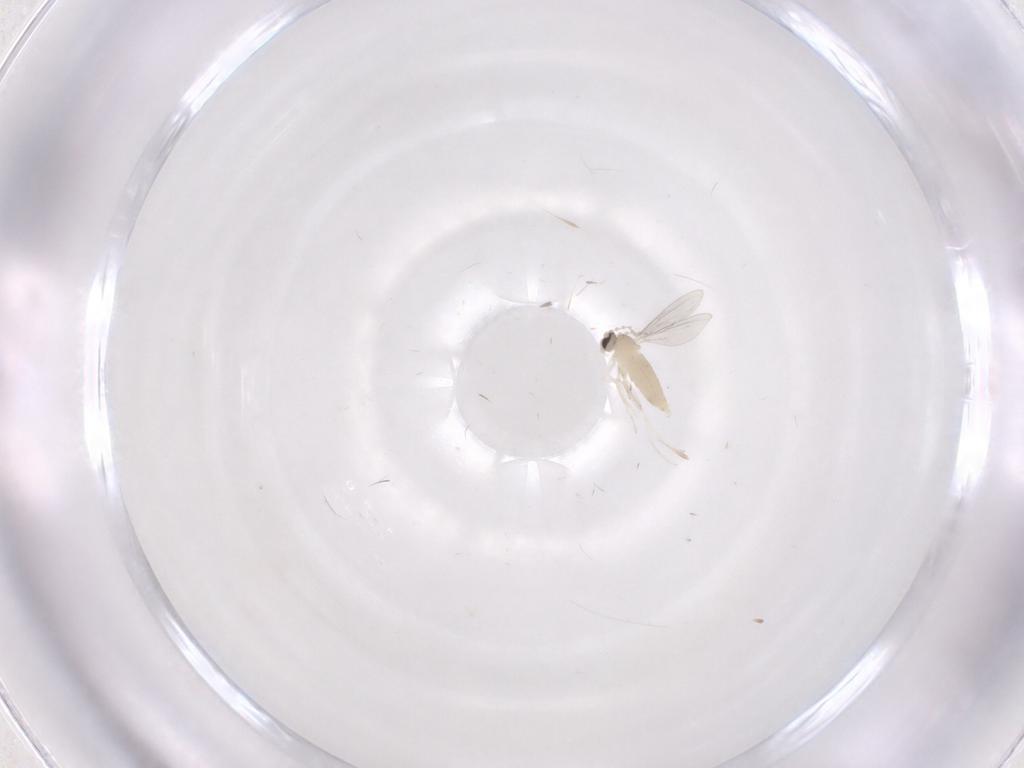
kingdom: Animalia
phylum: Arthropoda
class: Insecta
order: Diptera
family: Cecidomyiidae
